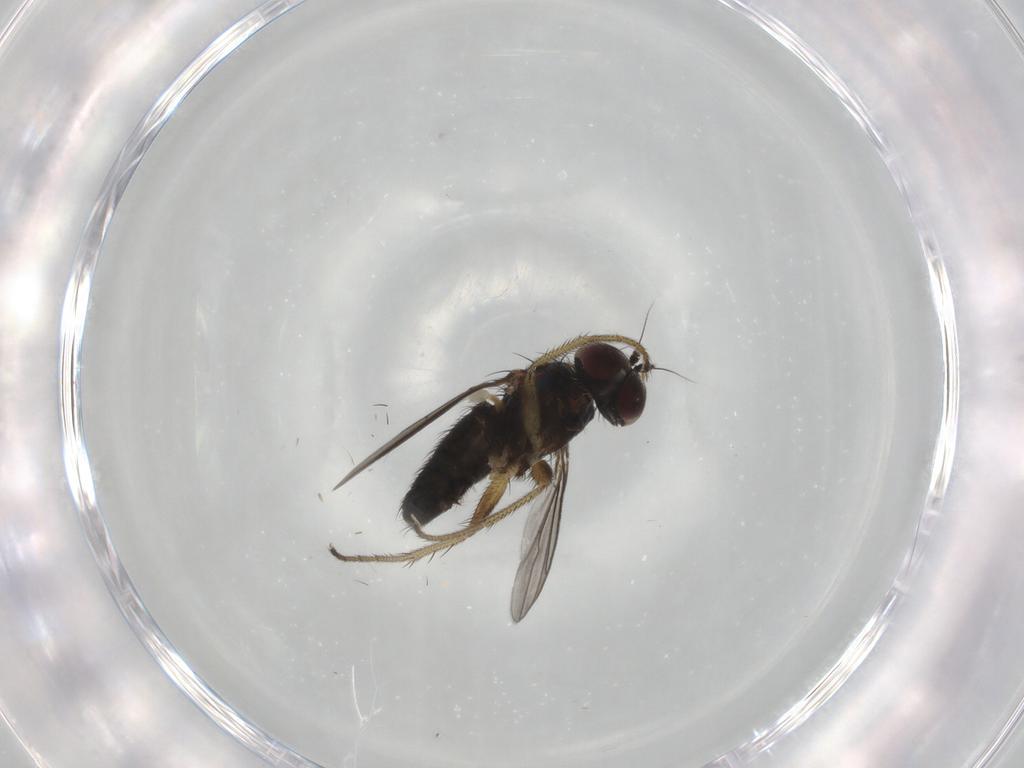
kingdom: Animalia
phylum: Arthropoda
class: Insecta
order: Diptera
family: Dolichopodidae
